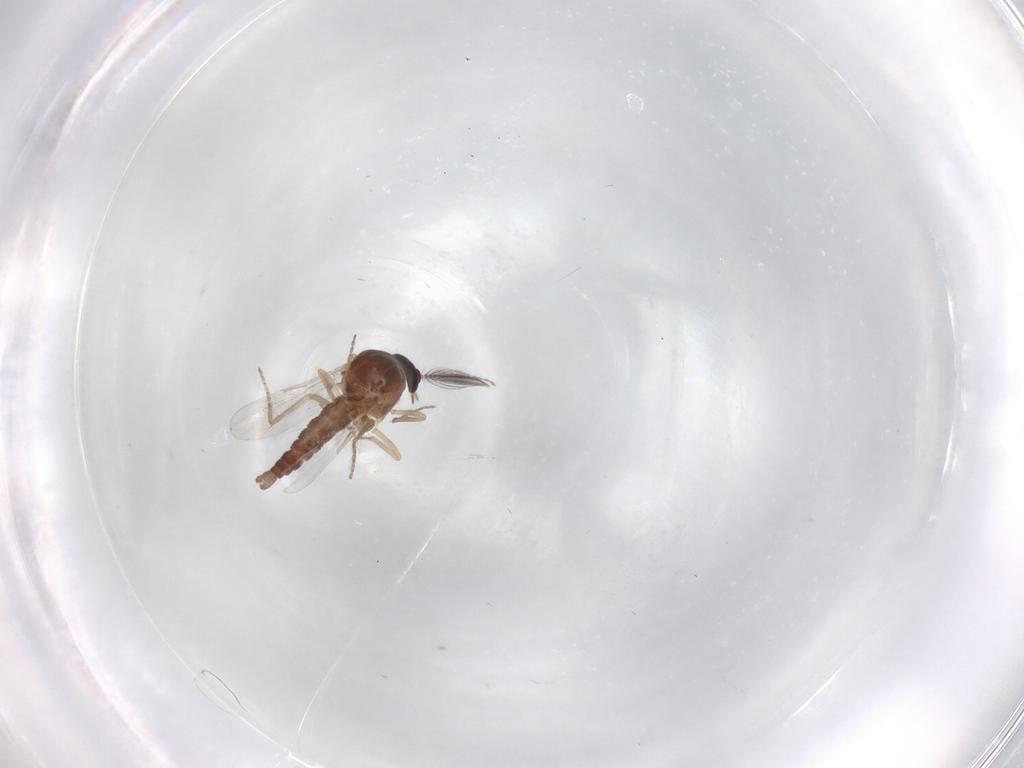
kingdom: Animalia
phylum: Arthropoda
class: Insecta
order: Diptera
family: Ceratopogonidae
